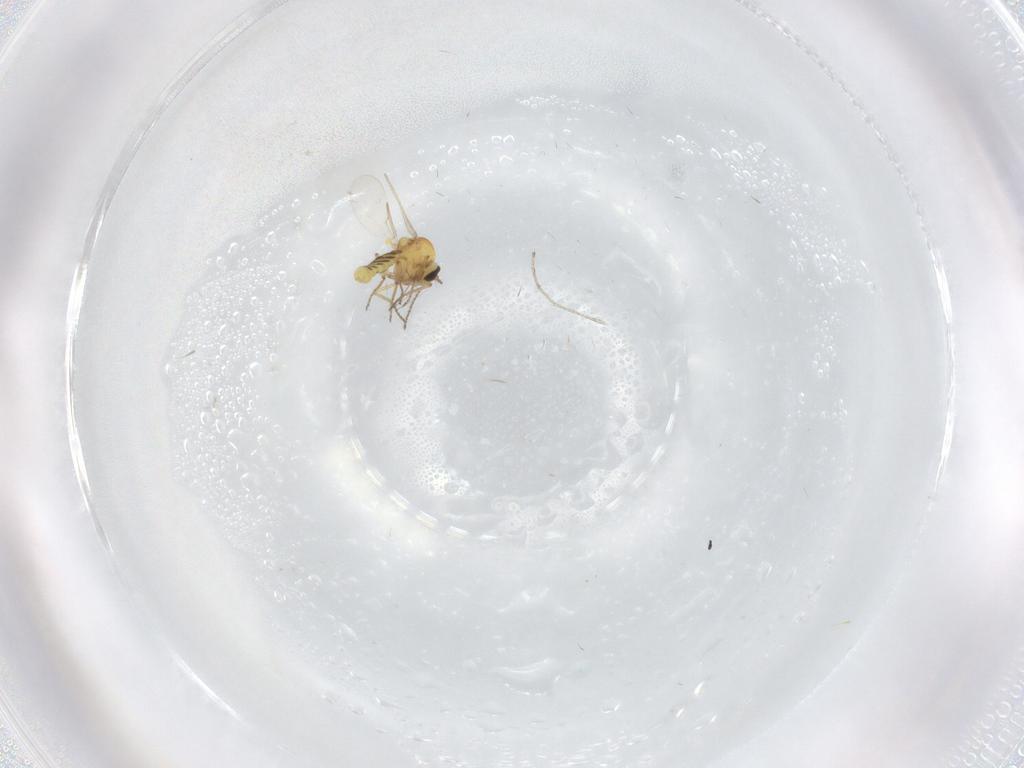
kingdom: Animalia
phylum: Arthropoda
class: Insecta
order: Diptera
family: Cecidomyiidae
